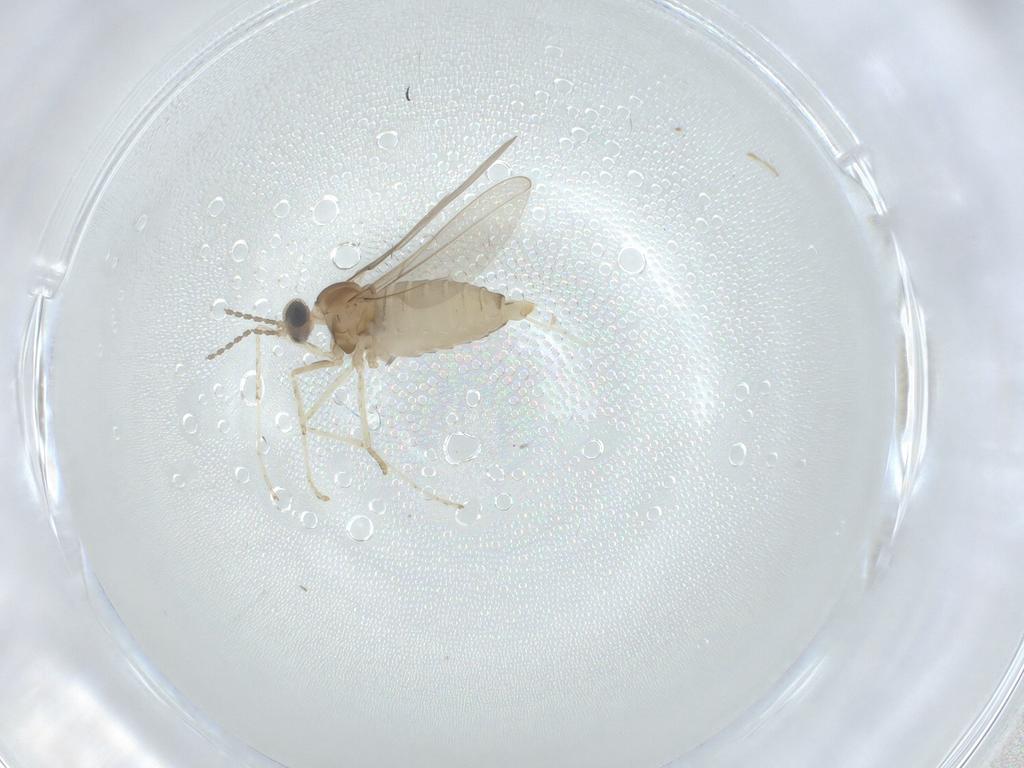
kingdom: Animalia
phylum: Arthropoda
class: Insecta
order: Diptera
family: Cecidomyiidae
